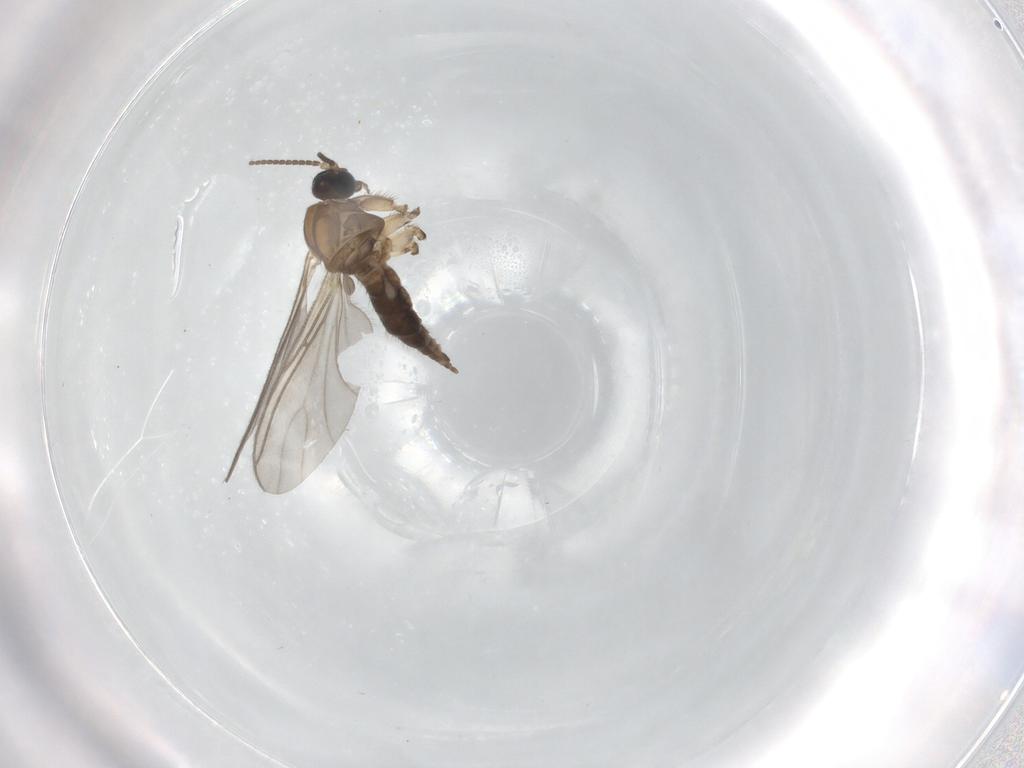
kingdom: Animalia
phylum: Arthropoda
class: Insecta
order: Diptera
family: Sciaridae
